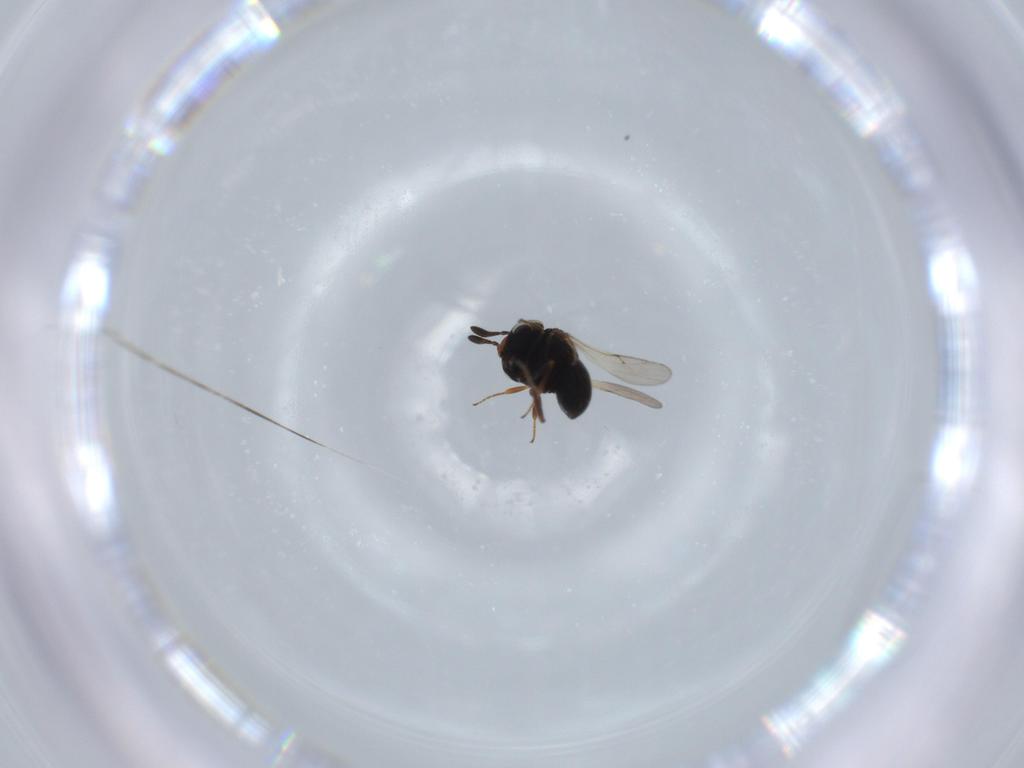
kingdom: Animalia
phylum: Arthropoda
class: Insecta
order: Hymenoptera
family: Scelionidae
